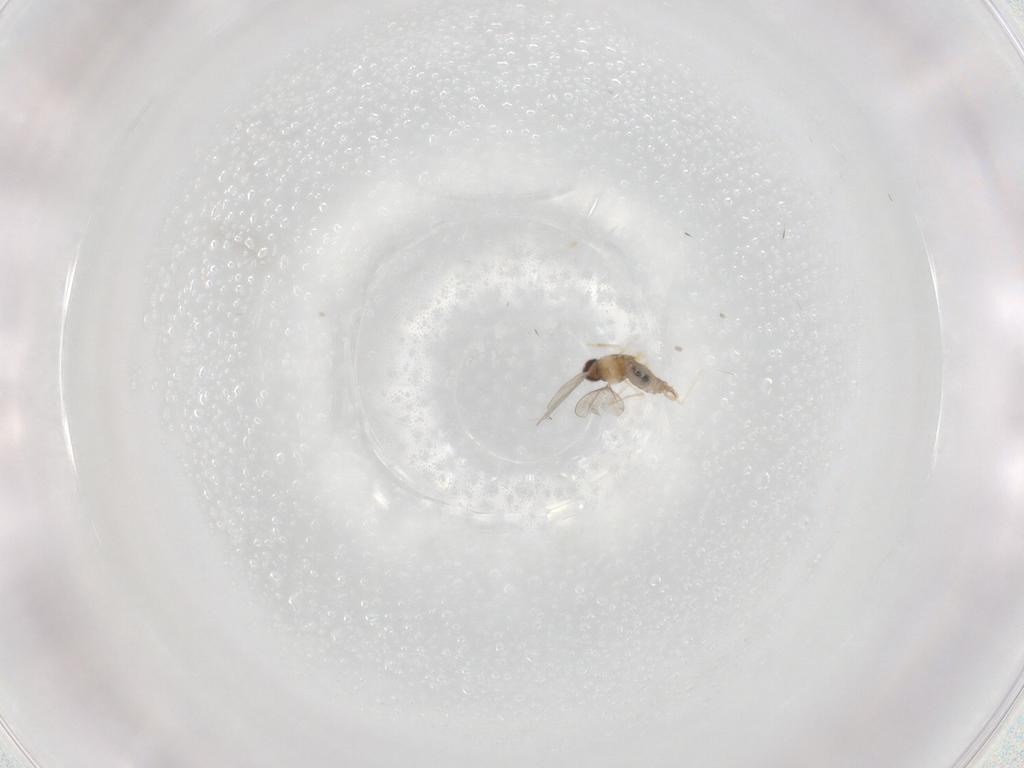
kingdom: Animalia
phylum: Arthropoda
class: Insecta
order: Diptera
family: Cecidomyiidae
